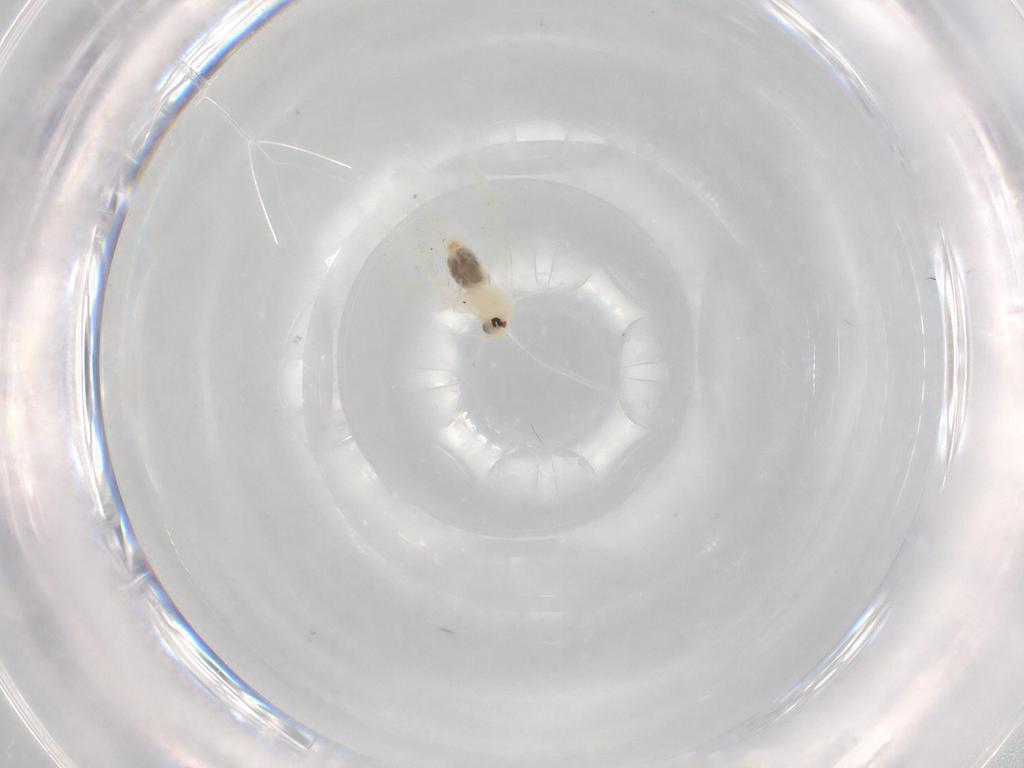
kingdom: Animalia
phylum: Arthropoda
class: Insecta
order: Hemiptera
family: Aleyrodidae
